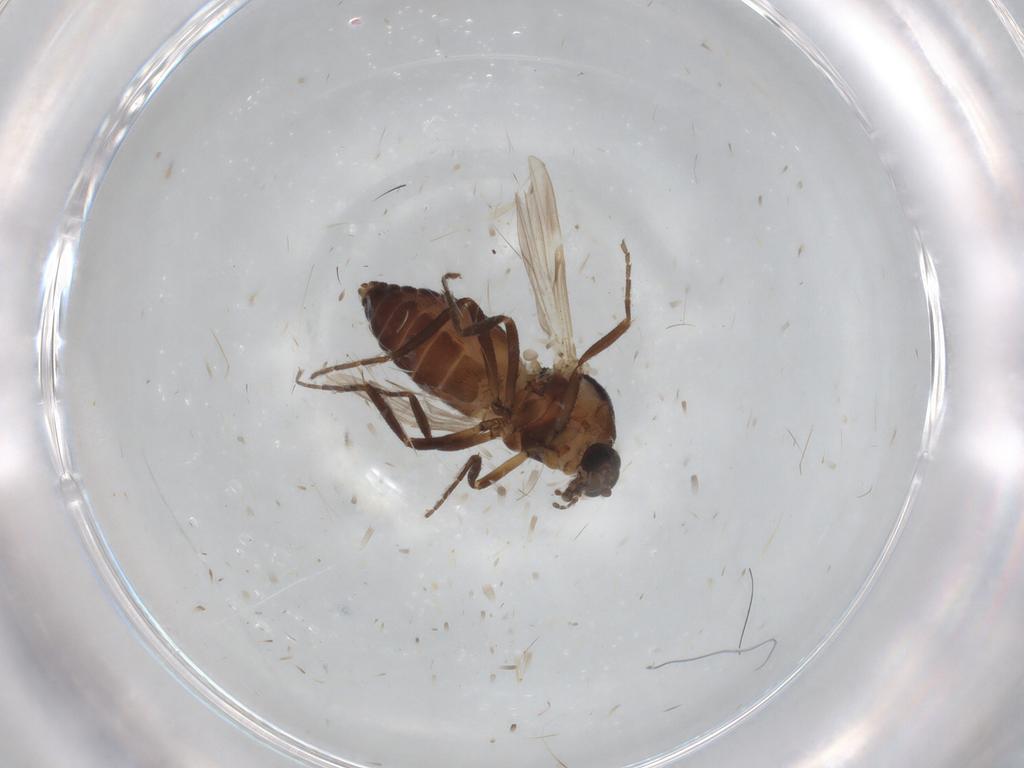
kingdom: Animalia
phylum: Arthropoda
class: Insecta
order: Diptera
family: Ceratopogonidae
